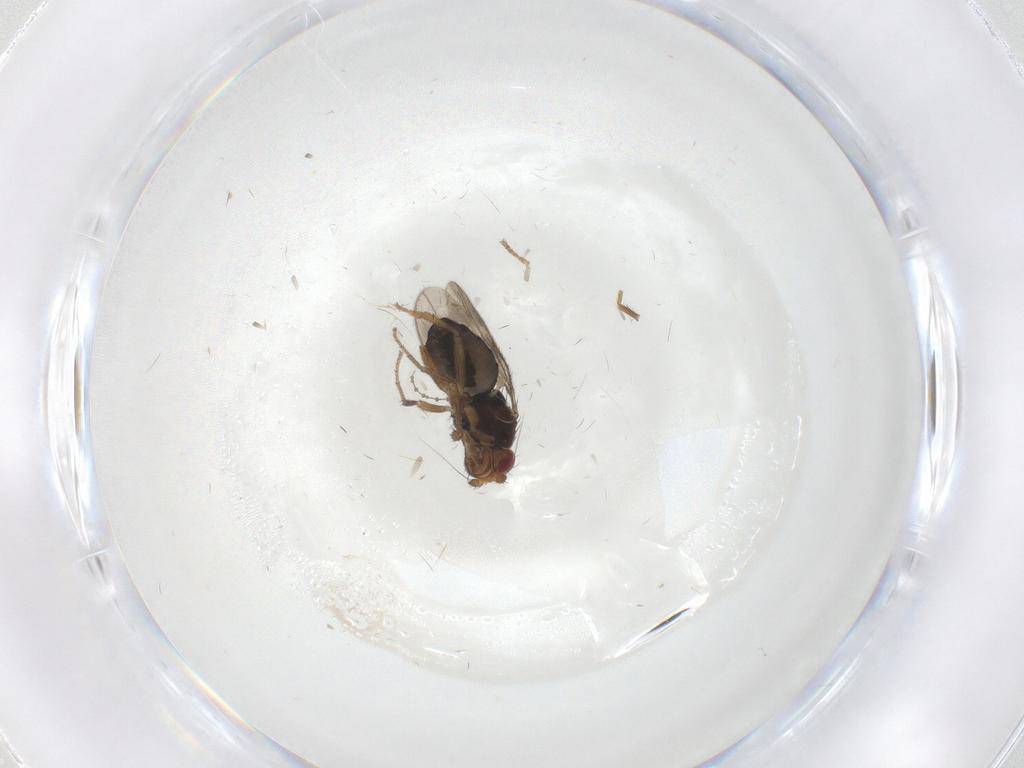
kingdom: Animalia
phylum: Arthropoda
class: Insecta
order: Diptera
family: Sphaeroceridae
